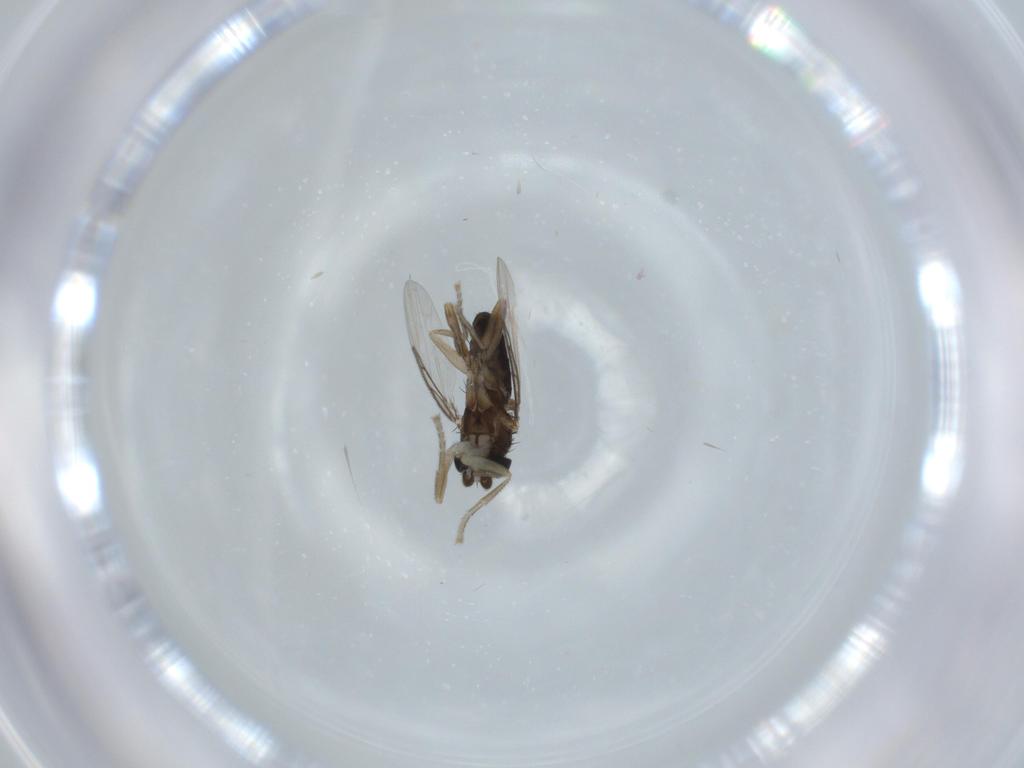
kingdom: Animalia
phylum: Arthropoda
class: Insecta
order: Diptera
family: Phoridae
